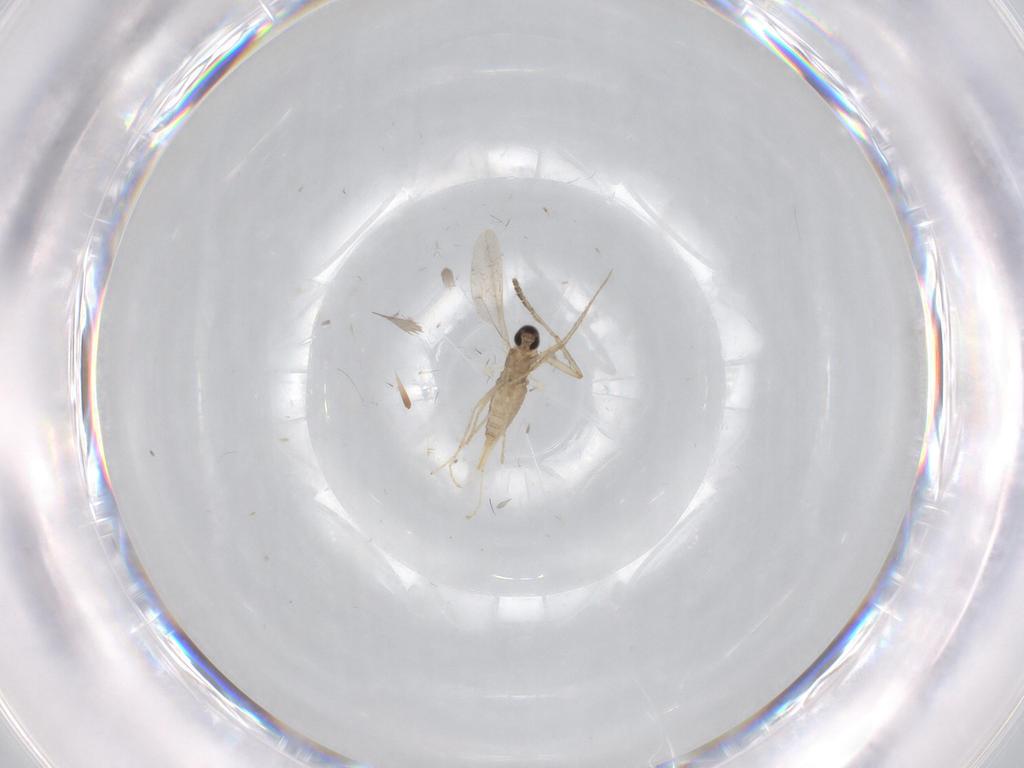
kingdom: Animalia
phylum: Arthropoda
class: Insecta
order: Diptera
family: Cecidomyiidae
